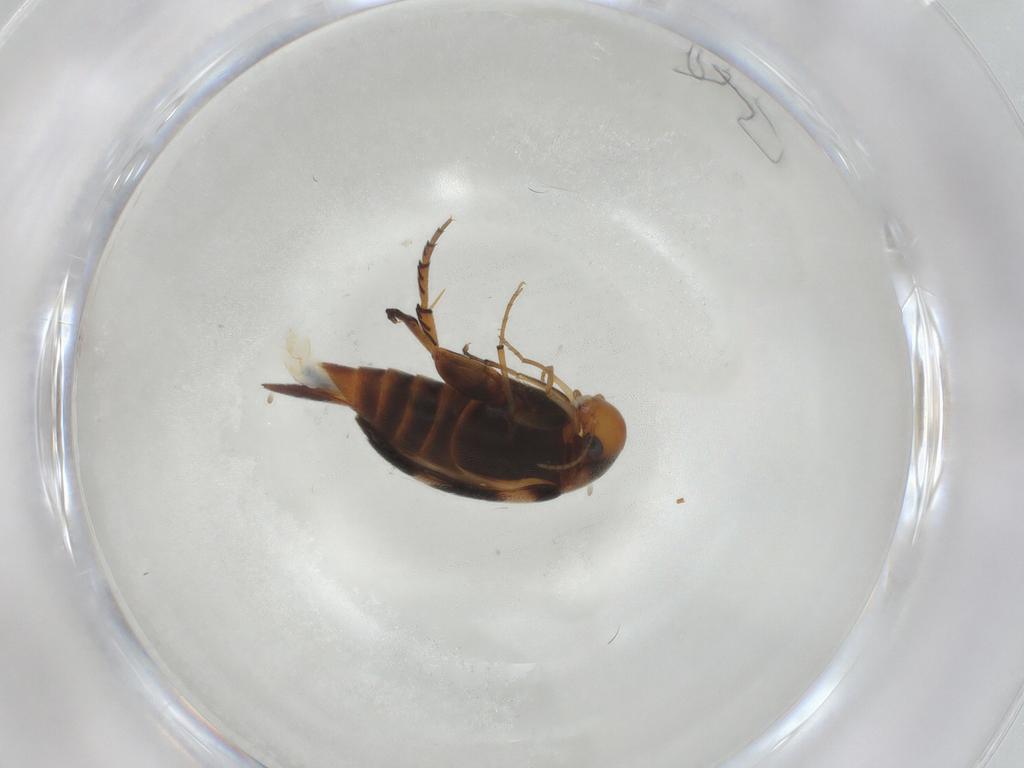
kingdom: Animalia
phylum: Arthropoda
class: Insecta
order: Coleoptera
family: Mordellidae
